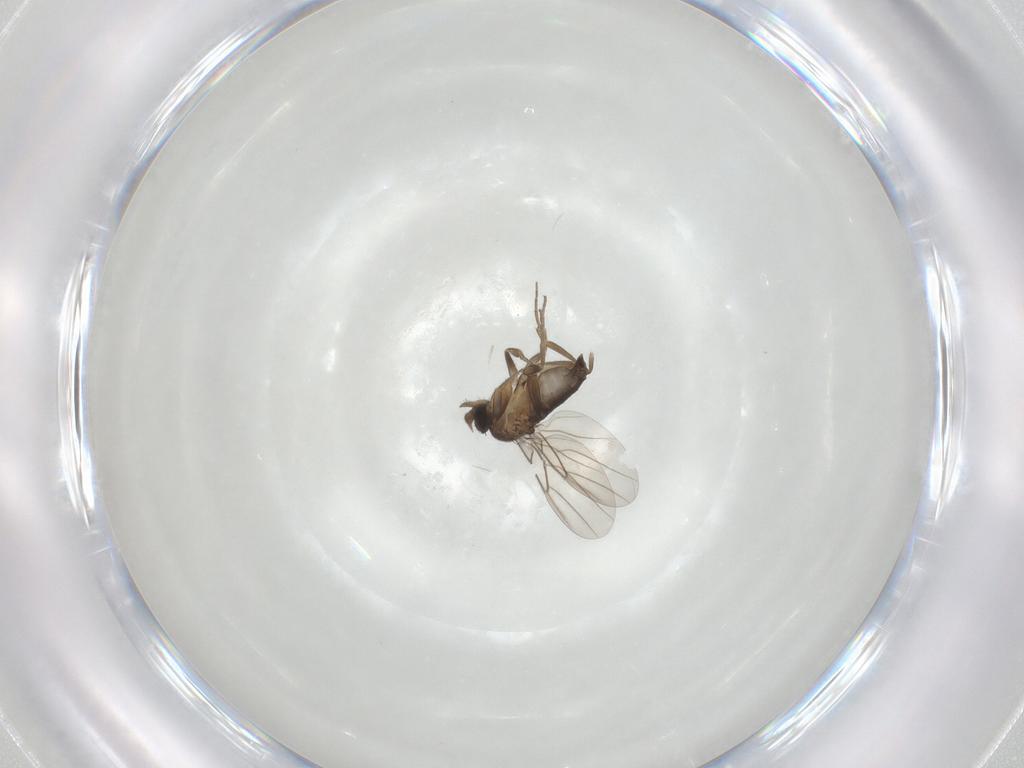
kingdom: Animalia
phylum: Arthropoda
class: Insecta
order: Diptera
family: Phoridae
